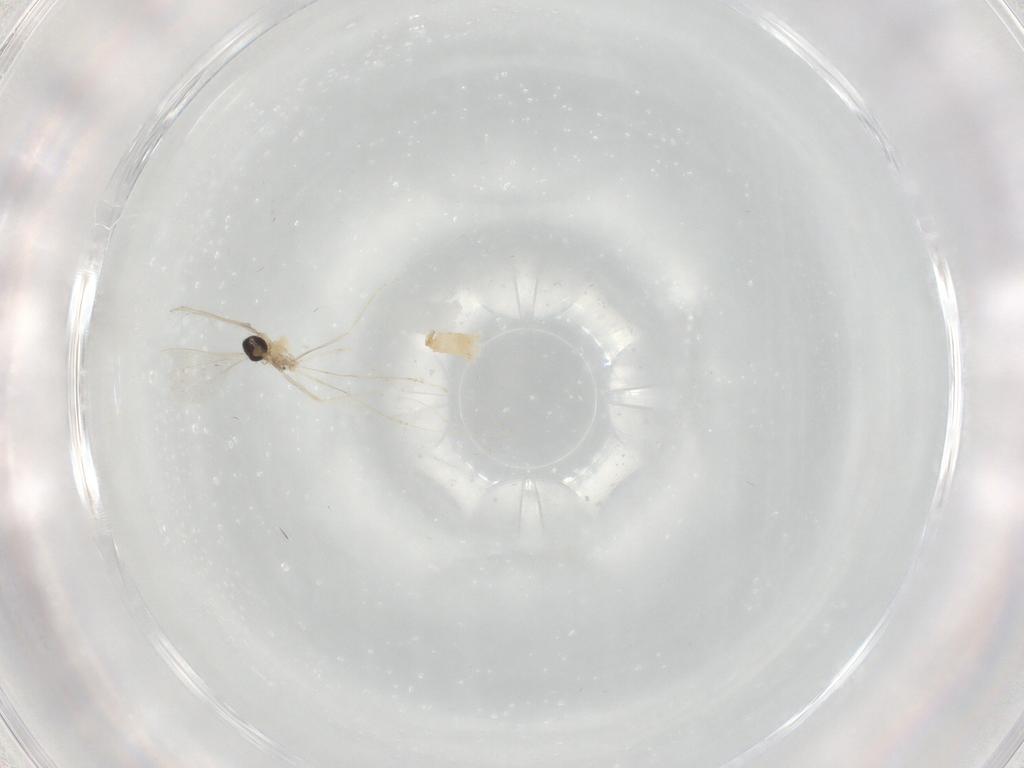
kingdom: Animalia
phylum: Arthropoda
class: Insecta
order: Diptera
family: Cecidomyiidae
